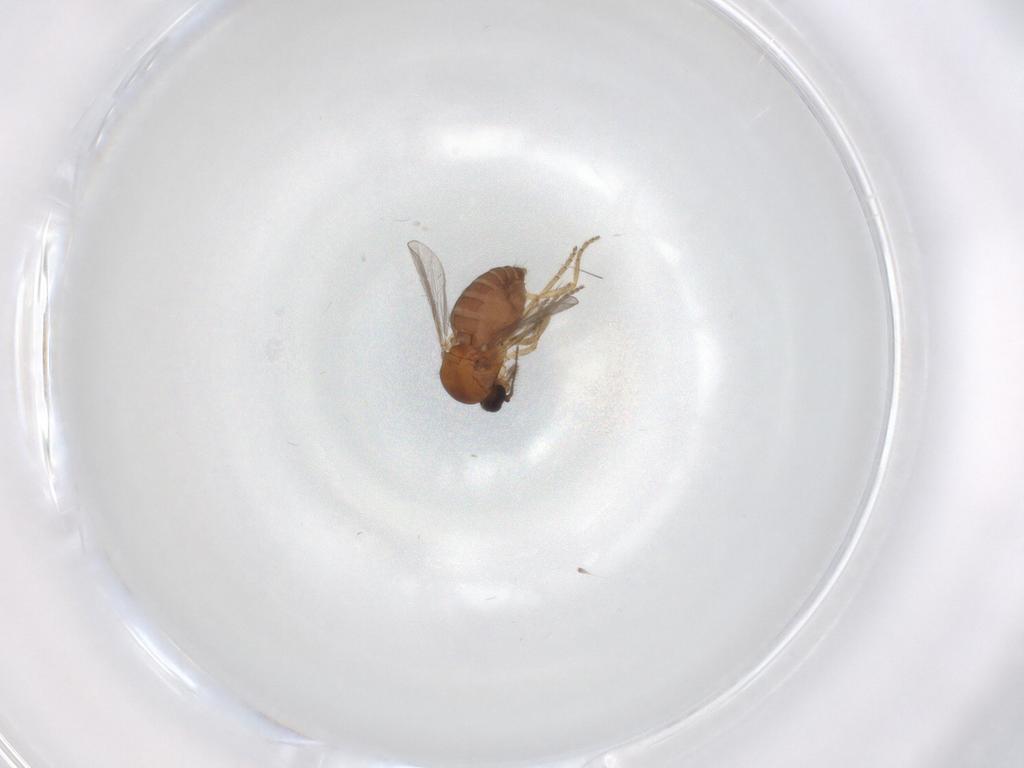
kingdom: Animalia
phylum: Arthropoda
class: Insecta
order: Diptera
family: Ceratopogonidae
